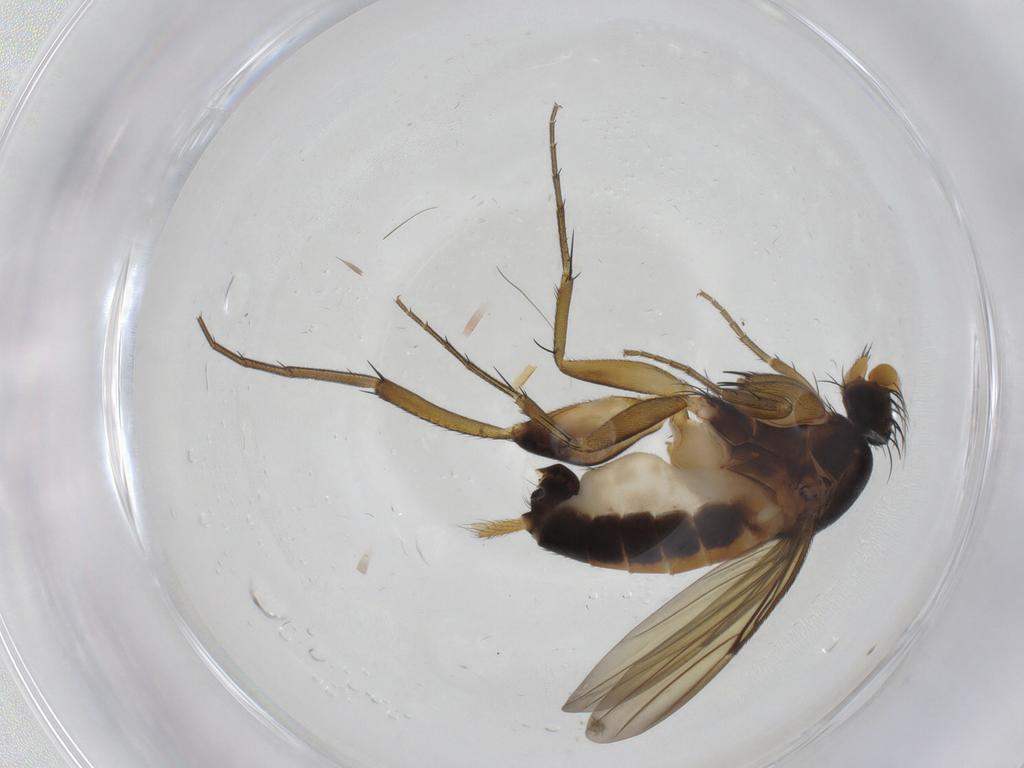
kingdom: Animalia
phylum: Arthropoda
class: Insecta
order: Diptera
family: Phoridae
